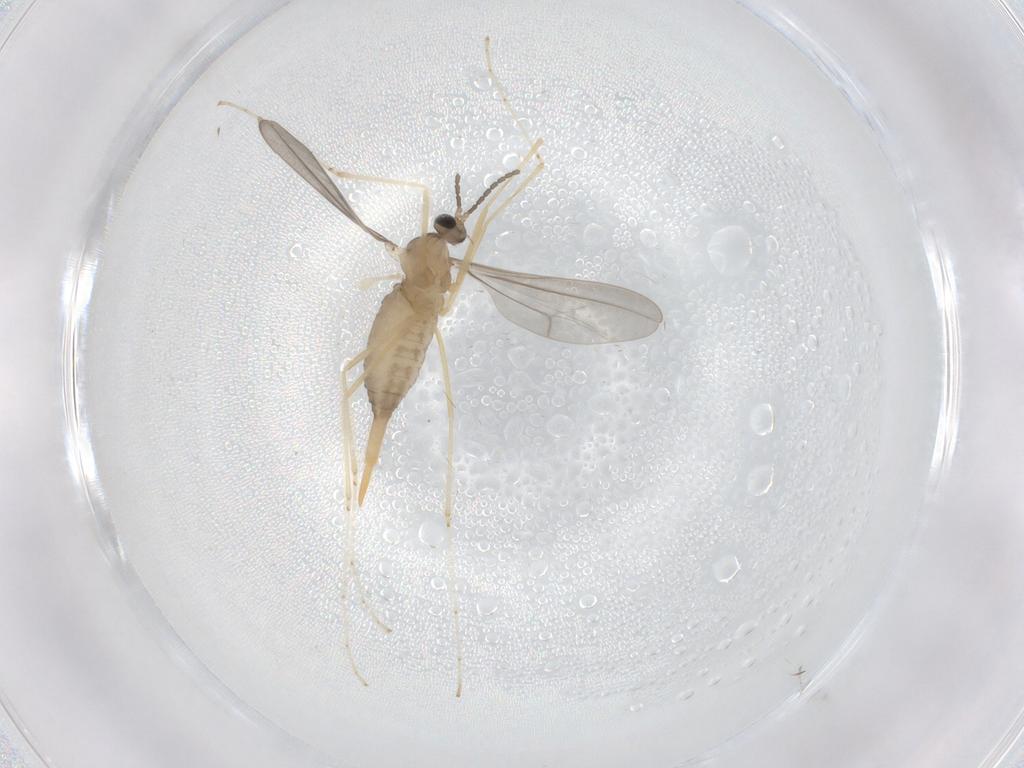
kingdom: Animalia
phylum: Arthropoda
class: Insecta
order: Diptera
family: Cecidomyiidae
